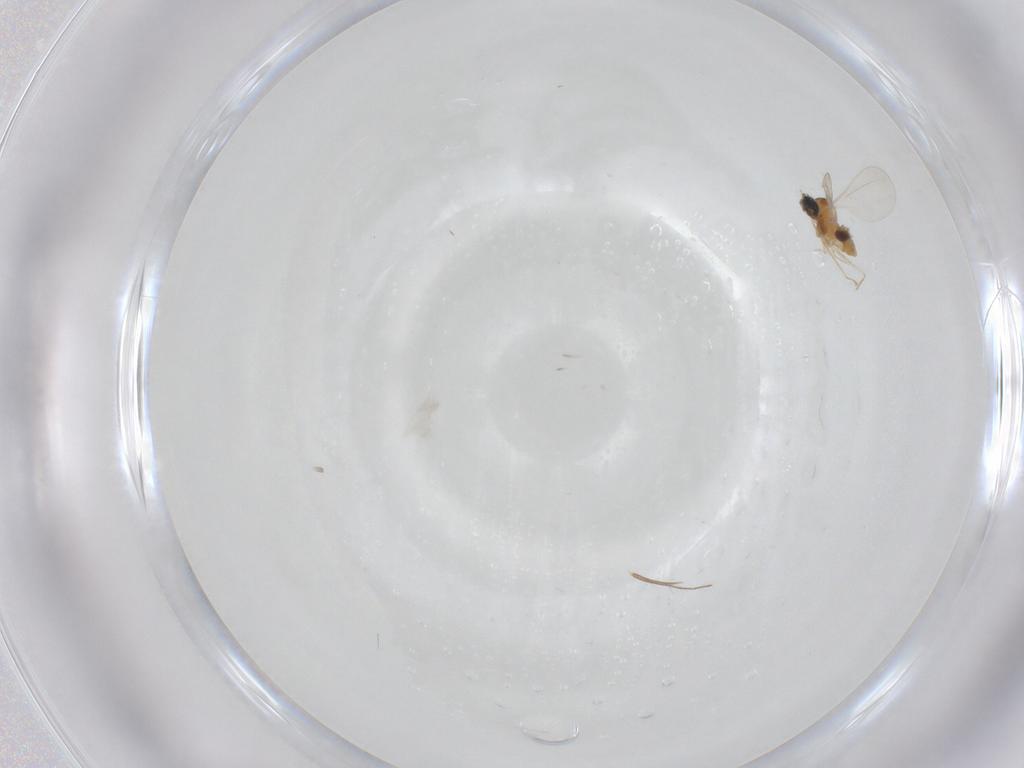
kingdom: Animalia
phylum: Arthropoda
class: Insecta
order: Diptera
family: Cecidomyiidae
